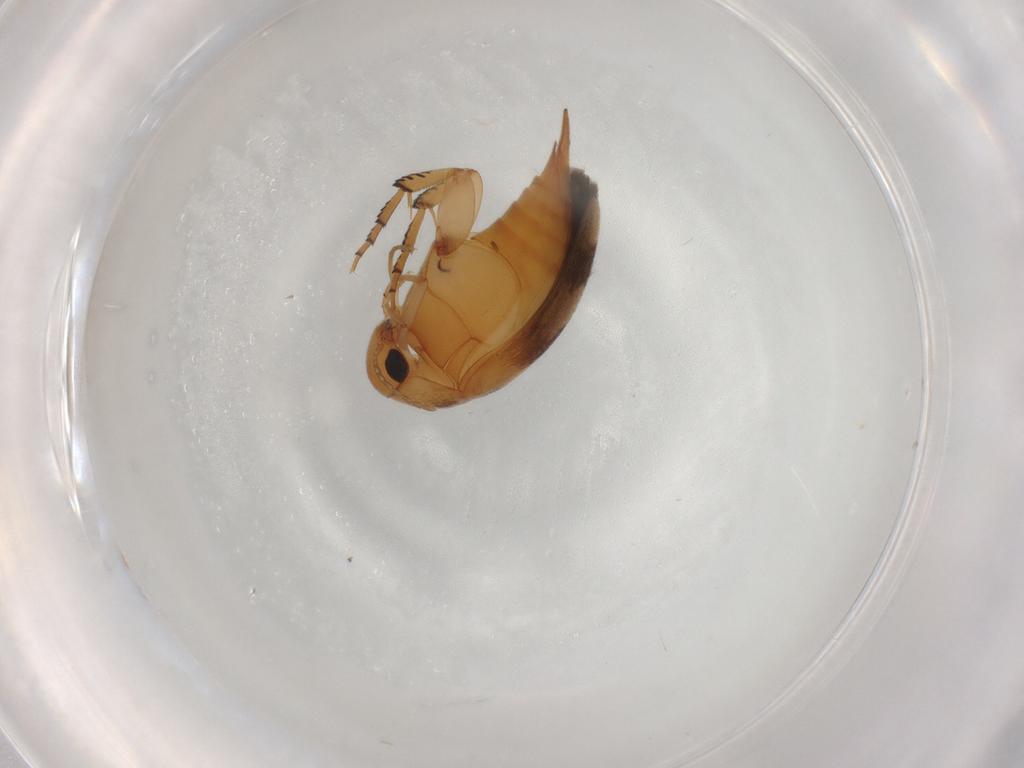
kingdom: Animalia
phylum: Arthropoda
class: Insecta
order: Coleoptera
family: Mordellidae
